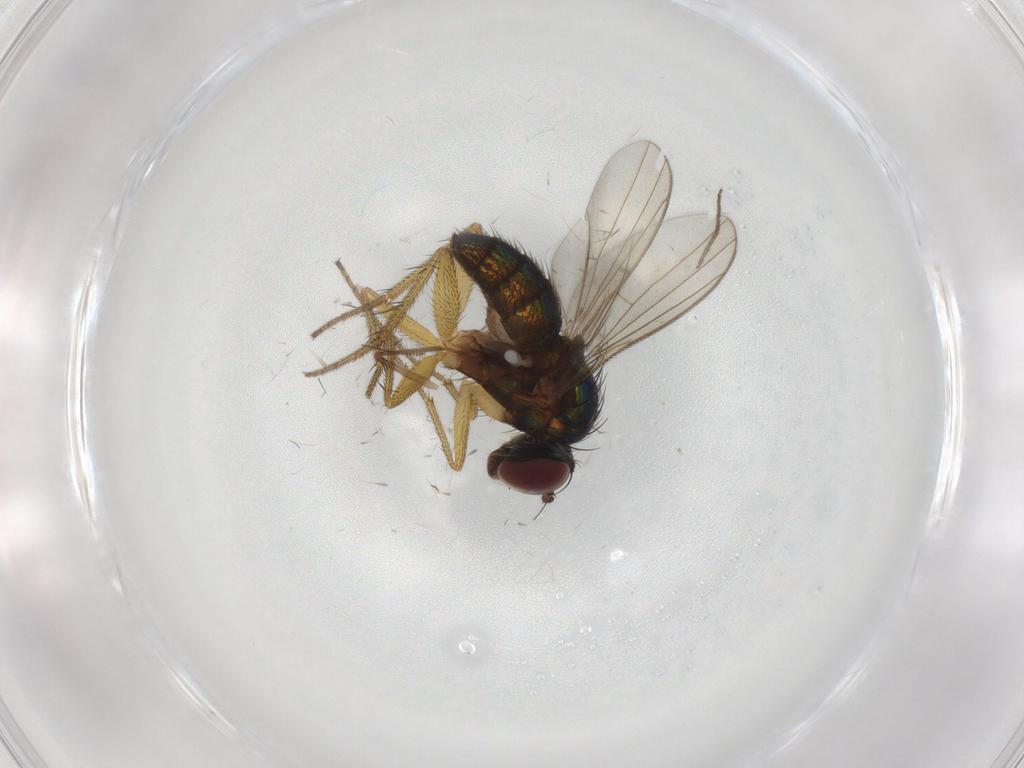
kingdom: Animalia
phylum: Arthropoda
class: Insecta
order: Diptera
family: Chironomidae
